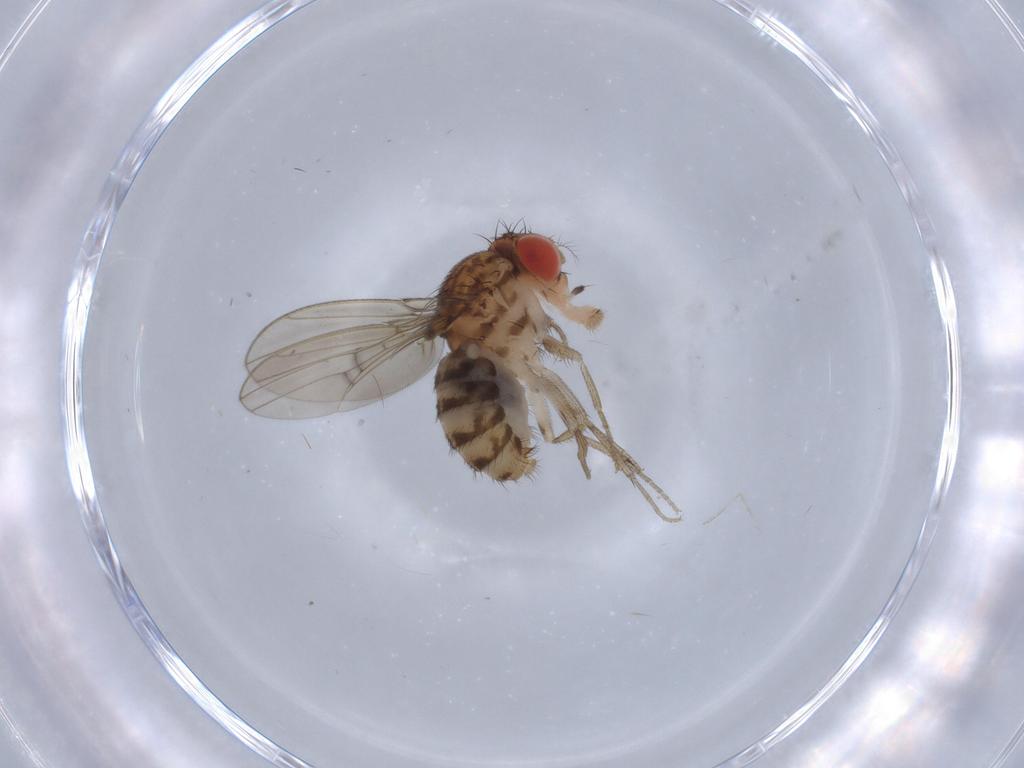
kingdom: Animalia
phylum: Arthropoda
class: Insecta
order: Diptera
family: Drosophilidae
